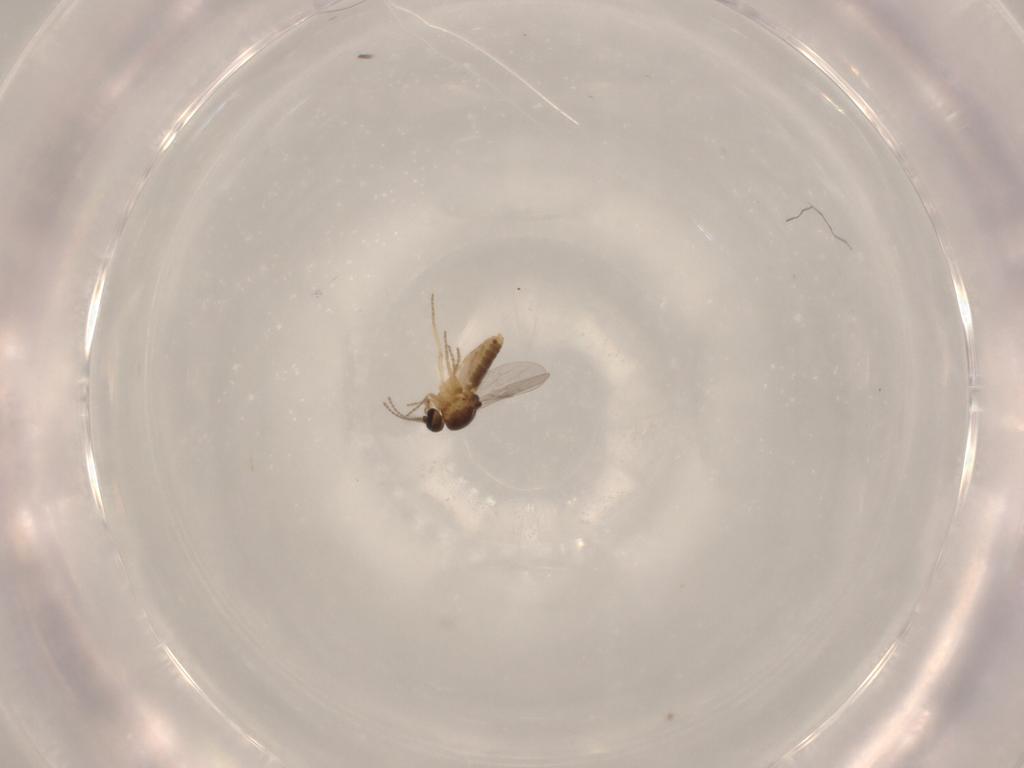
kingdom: Animalia
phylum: Arthropoda
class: Insecta
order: Diptera
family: Ceratopogonidae
